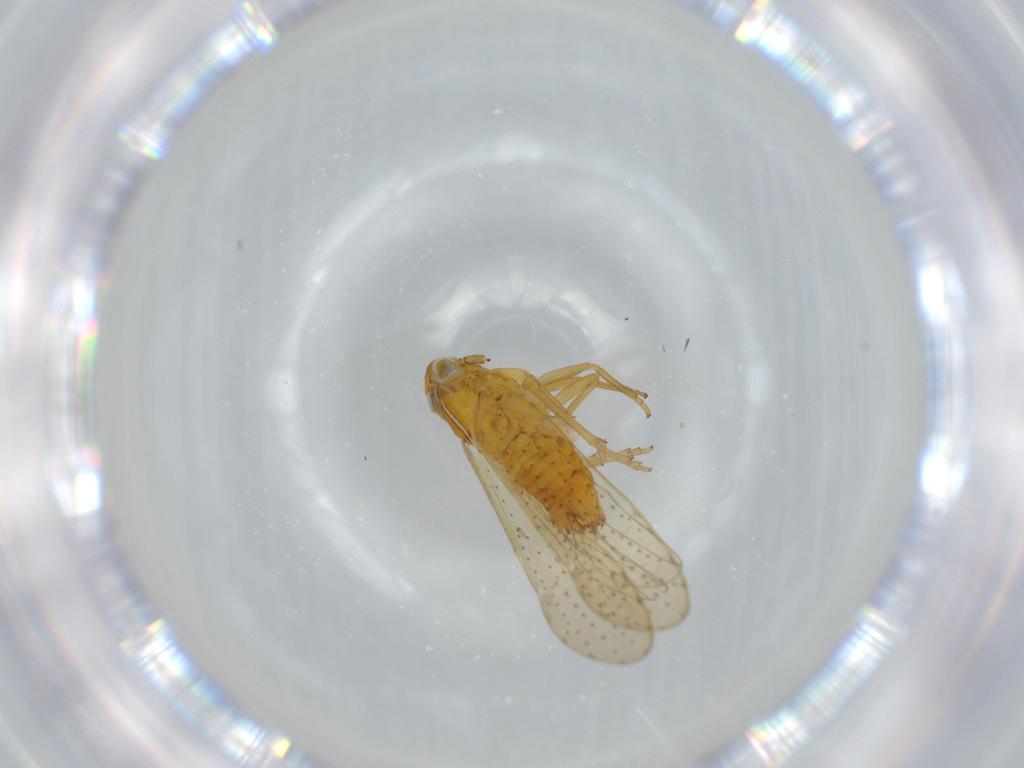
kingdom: Animalia
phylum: Arthropoda
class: Insecta
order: Hemiptera
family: Delphacidae
